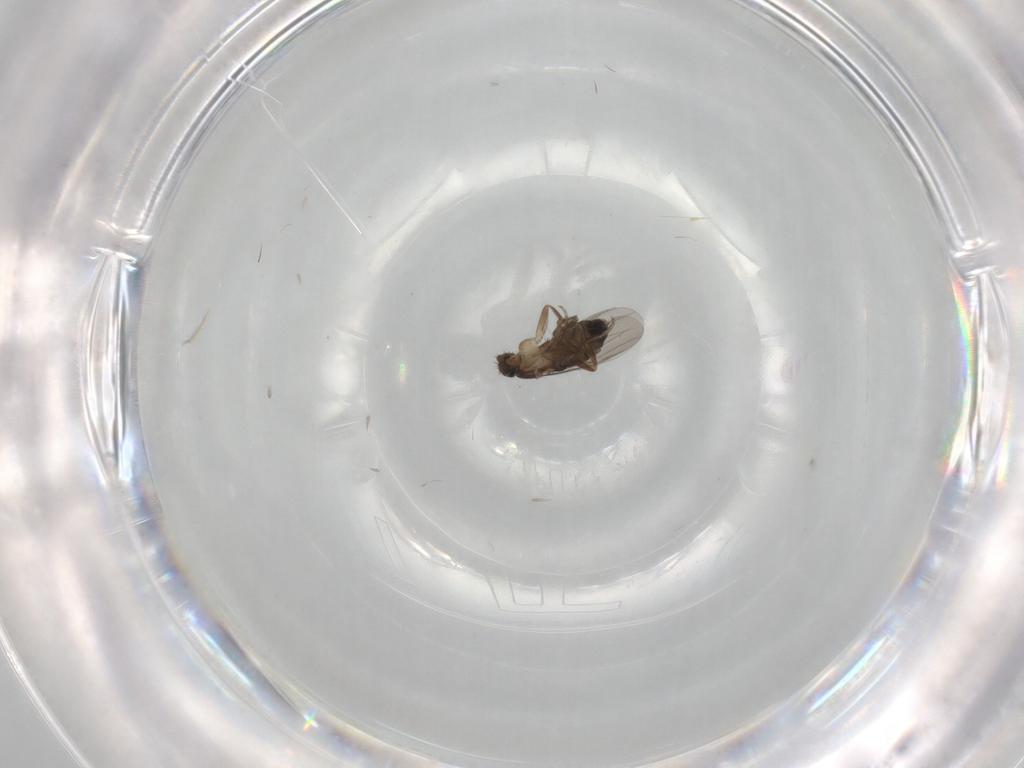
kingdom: Animalia
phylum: Arthropoda
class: Insecta
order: Diptera
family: Phoridae
